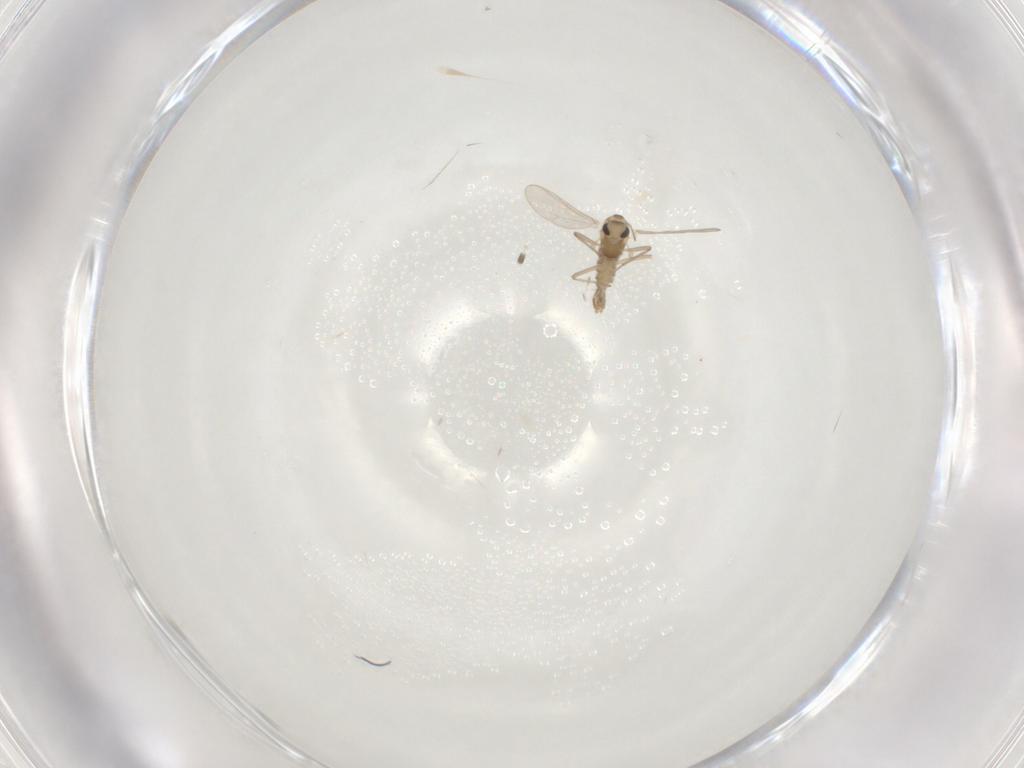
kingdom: Animalia
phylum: Arthropoda
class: Insecta
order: Diptera
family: Chironomidae
